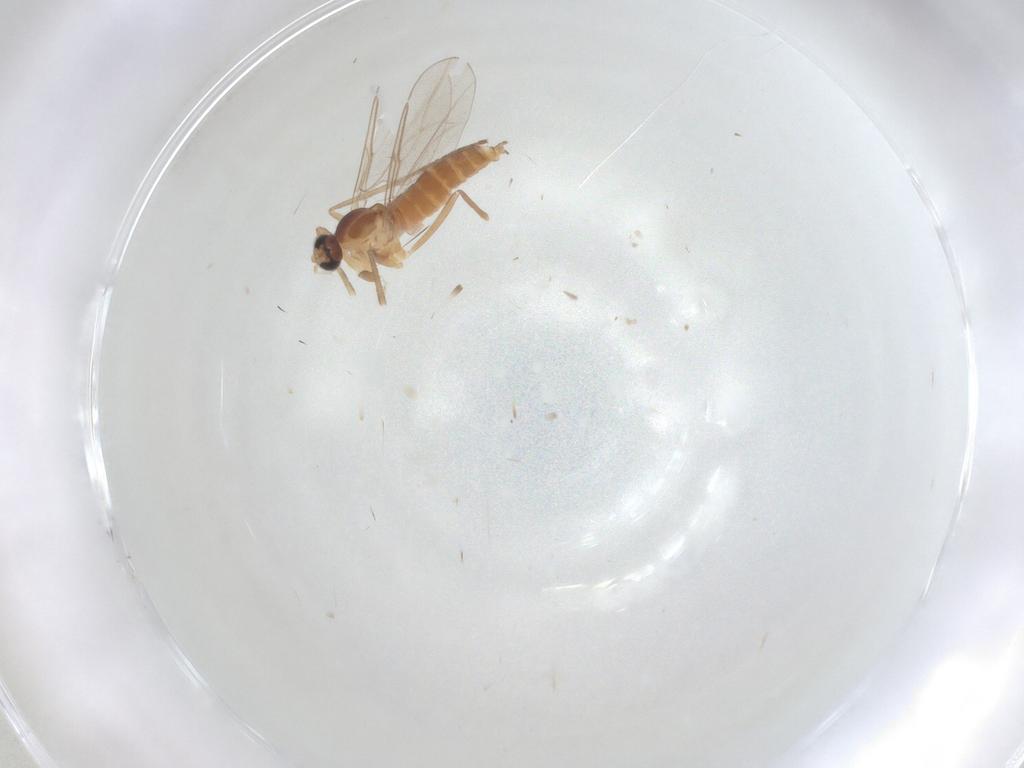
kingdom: Animalia
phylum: Arthropoda
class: Insecta
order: Diptera
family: Cecidomyiidae
